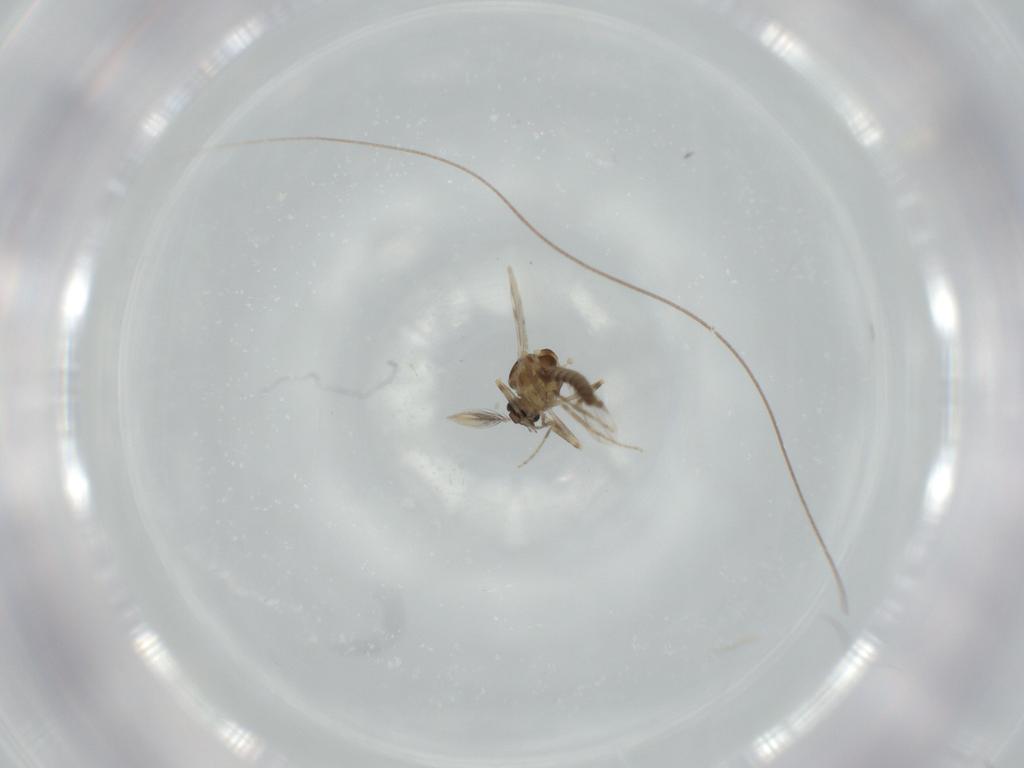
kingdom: Animalia
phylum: Arthropoda
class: Insecta
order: Diptera
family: Ceratopogonidae
